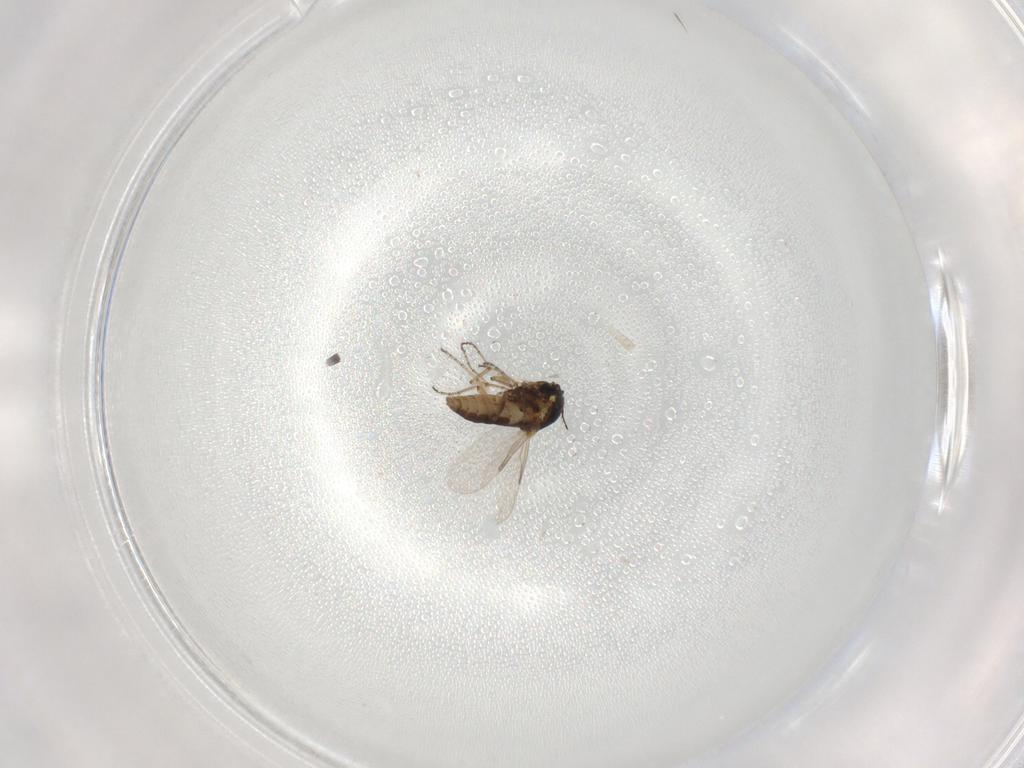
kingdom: Animalia
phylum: Arthropoda
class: Insecta
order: Diptera
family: Ceratopogonidae
